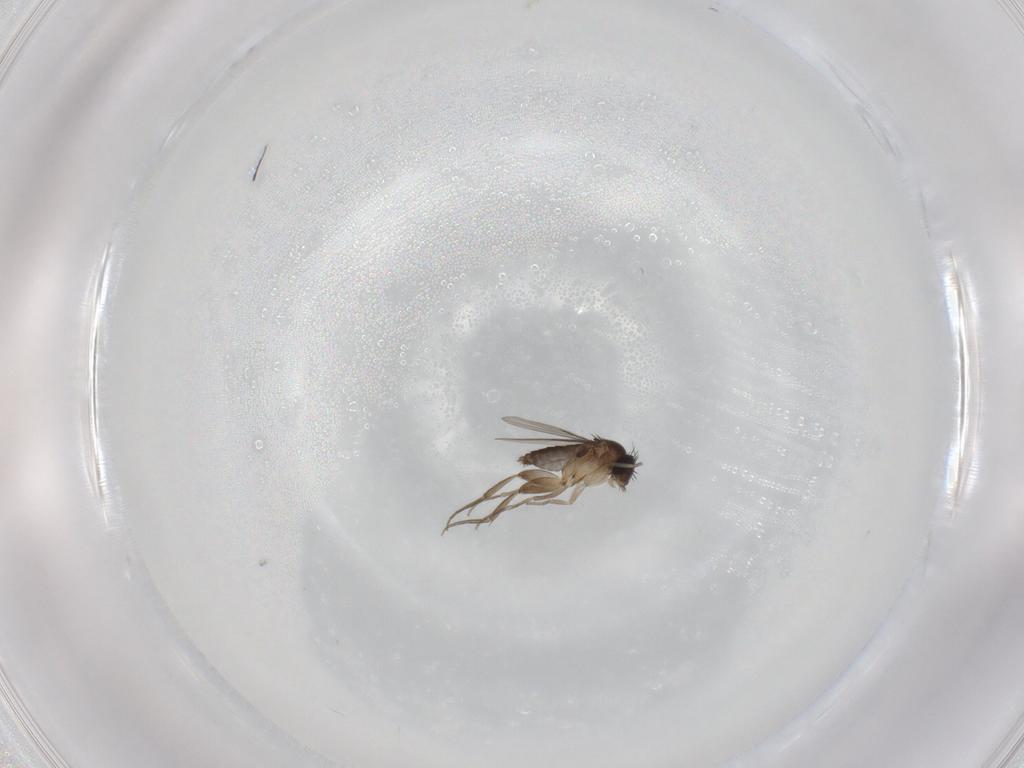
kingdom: Animalia
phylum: Arthropoda
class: Insecta
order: Diptera
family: Phoridae
